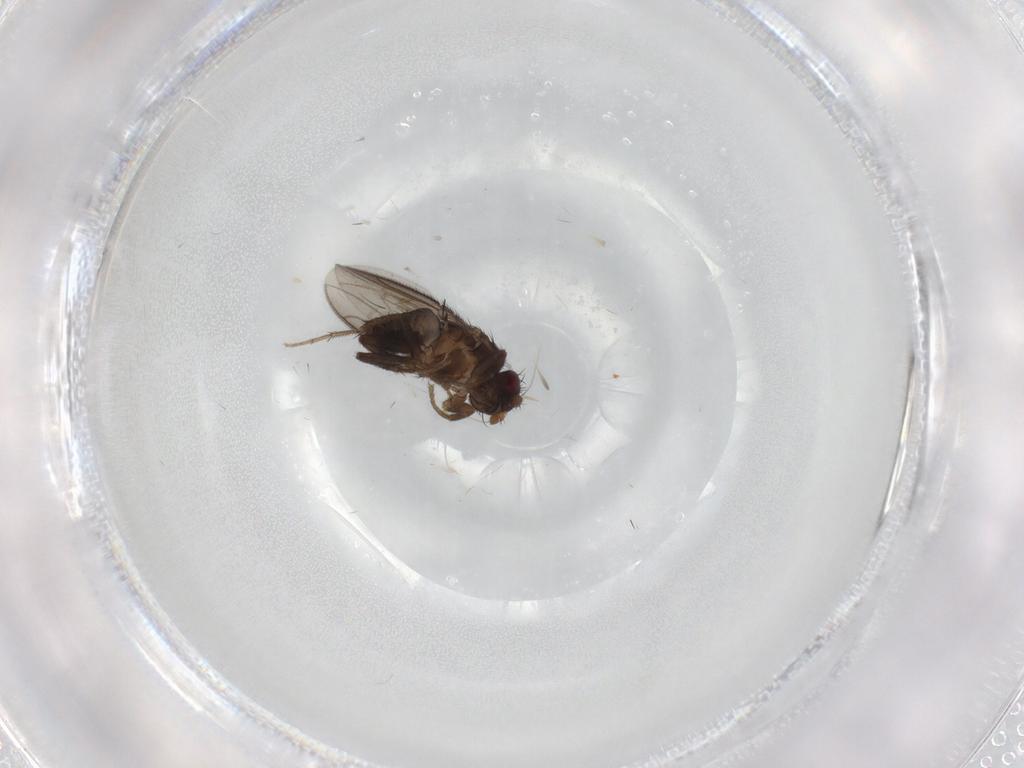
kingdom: Animalia
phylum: Arthropoda
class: Insecta
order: Diptera
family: Sphaeroceridae
